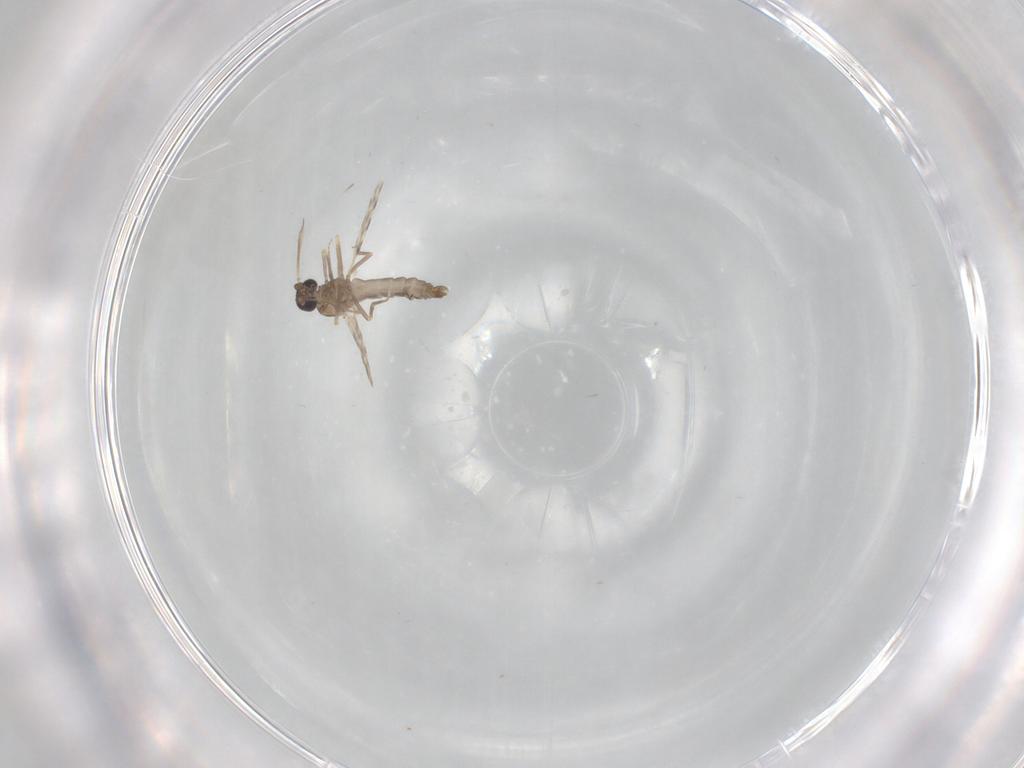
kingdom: Animalia
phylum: Arthropoda
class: Insecta
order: Diptera
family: Ceratopogonidae
